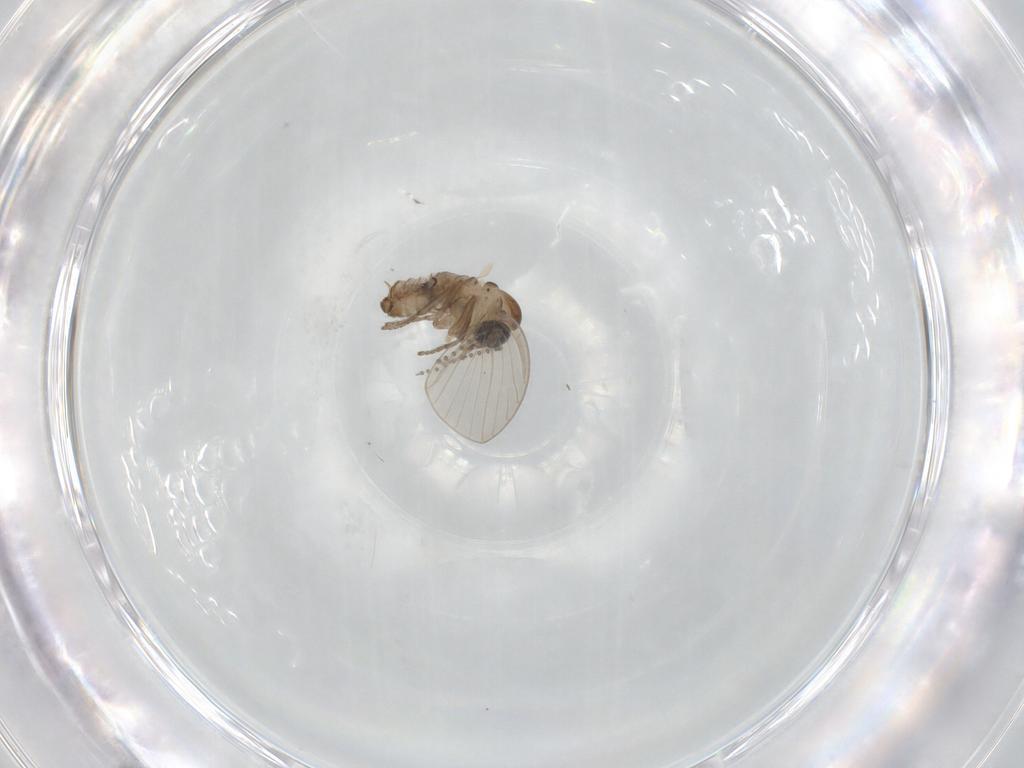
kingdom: Animalia
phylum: Arthropoda
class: Insecta
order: Diptera
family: Psychodidae
